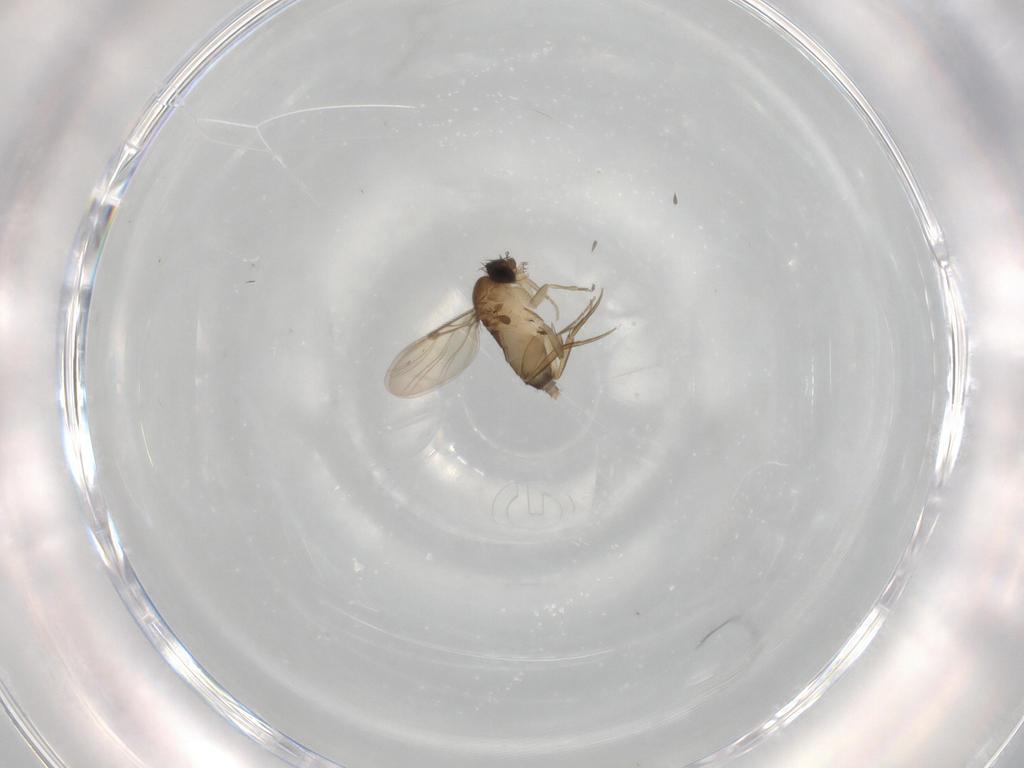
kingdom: Animalia
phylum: Arthropoda
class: Insecta
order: Diptera
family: Phoridae
